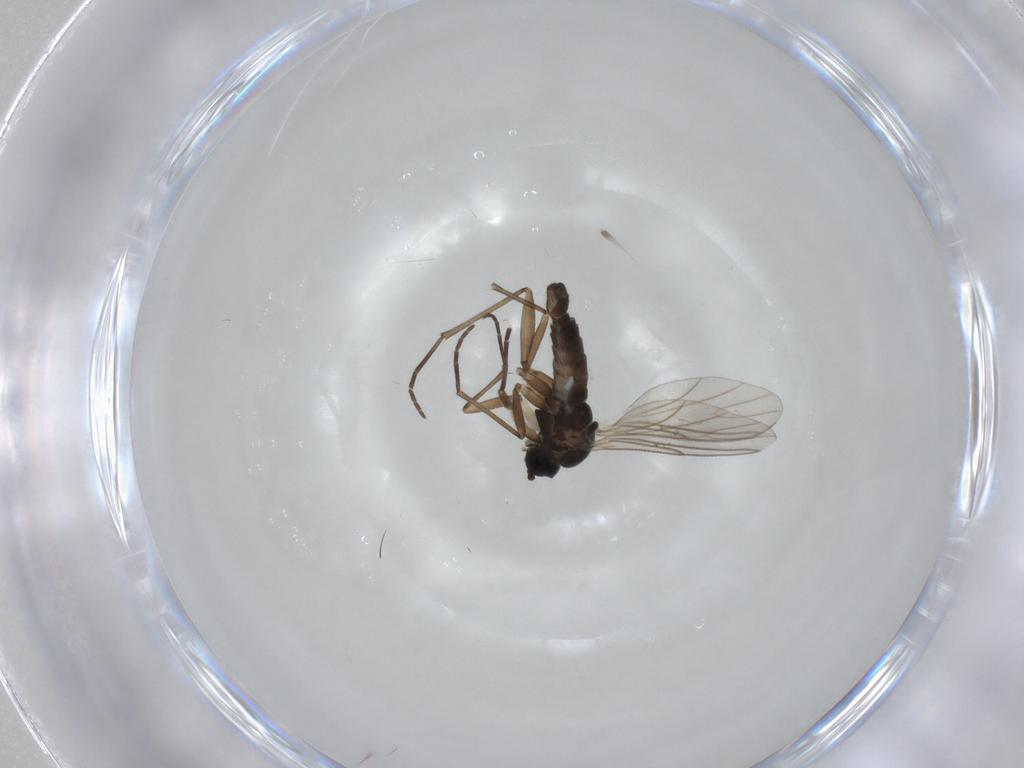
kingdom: Animalia
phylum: Arthropoda
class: Insecta
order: Diptera
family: Sciaridae
